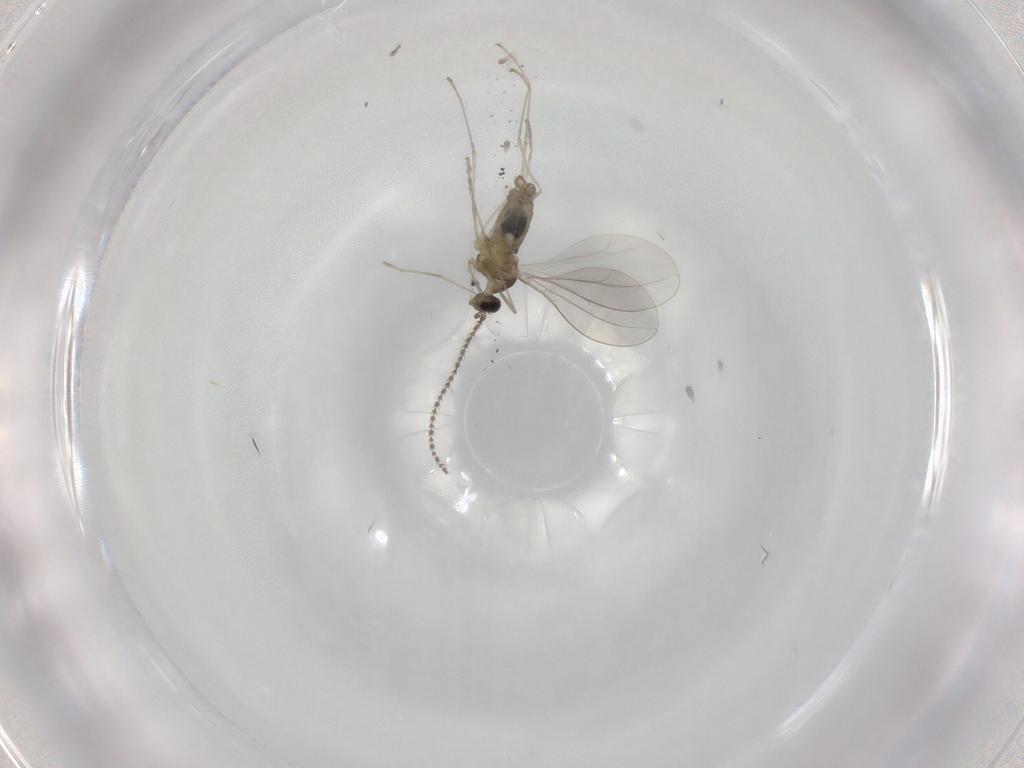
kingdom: Animalia
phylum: Arthropoda
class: Insecta
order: Diptera
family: Cecidomyiidae
